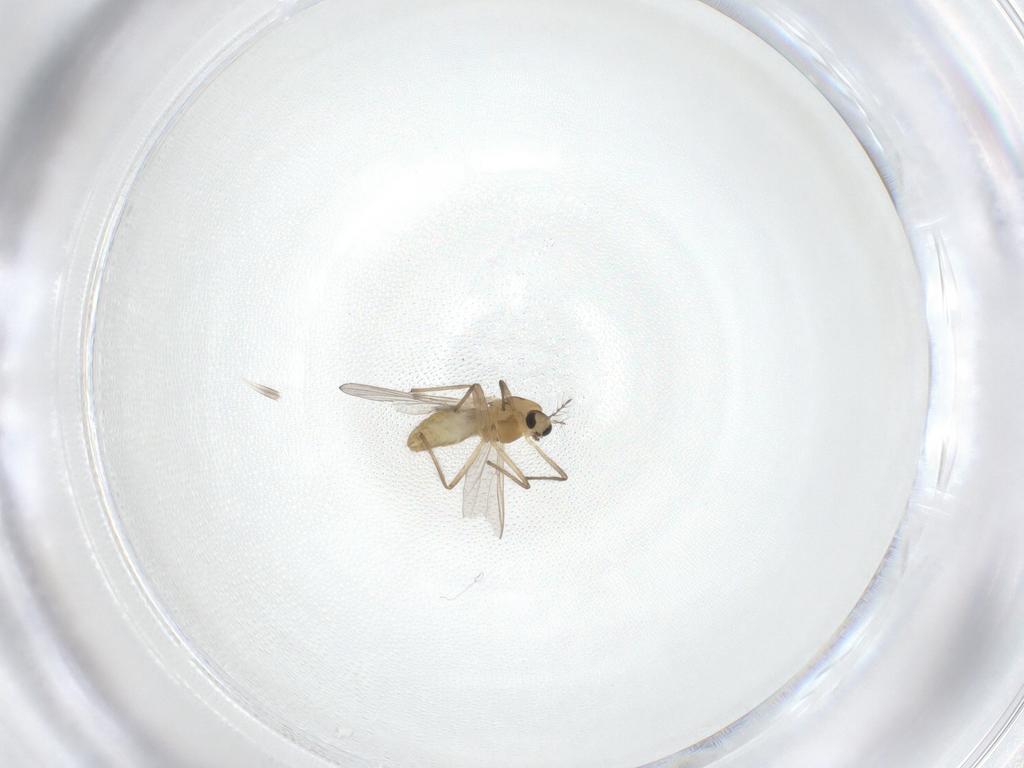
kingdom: Animalia
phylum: Arthropoda
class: Insecta
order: Diptera
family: Chironomidae
